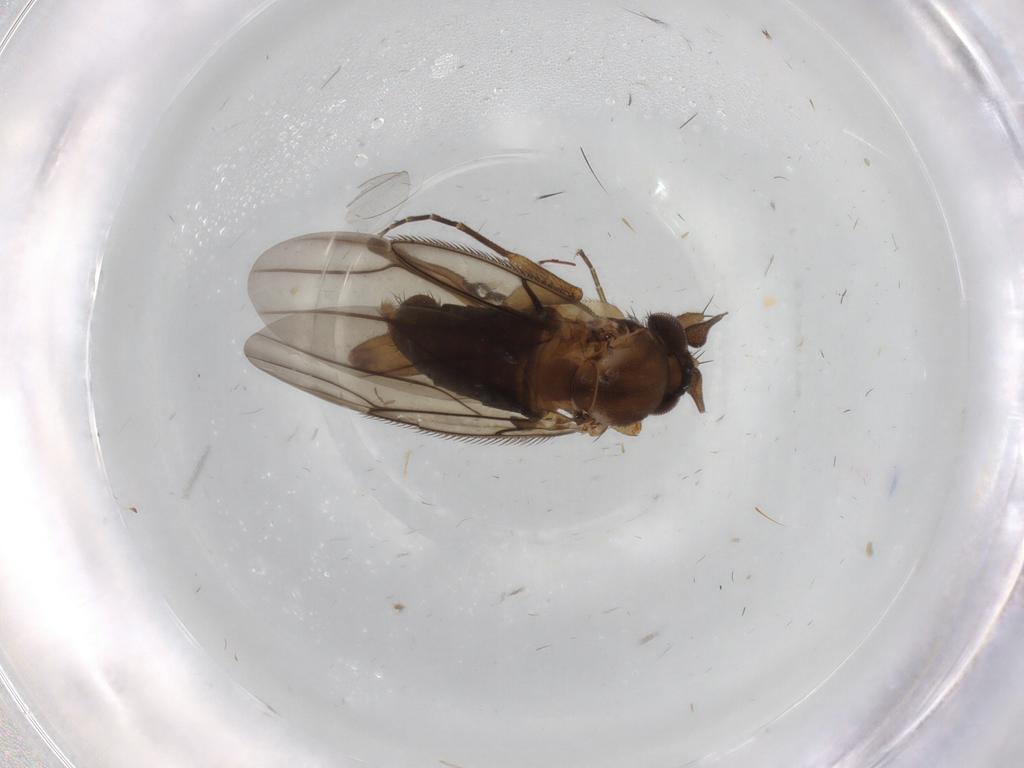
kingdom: Animalia
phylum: Arthropoda
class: Insecta
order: Diptera
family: Phoridae
